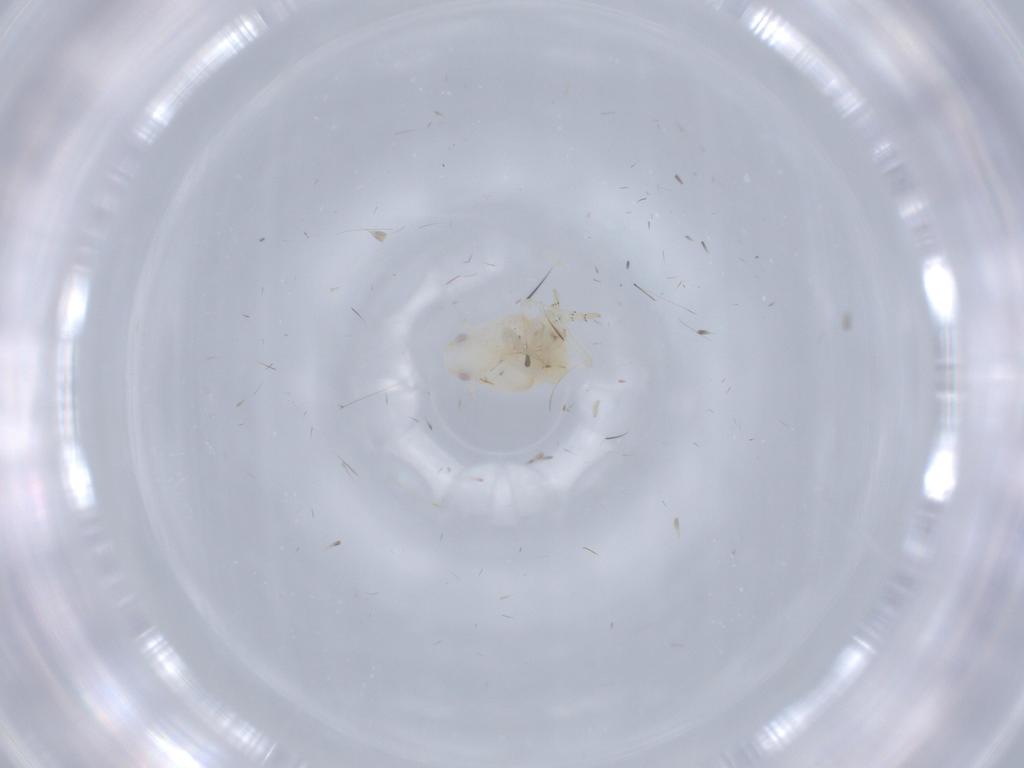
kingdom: Animalia
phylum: Arthropoda
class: Insecta
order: Hemiptera
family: Flatidae
